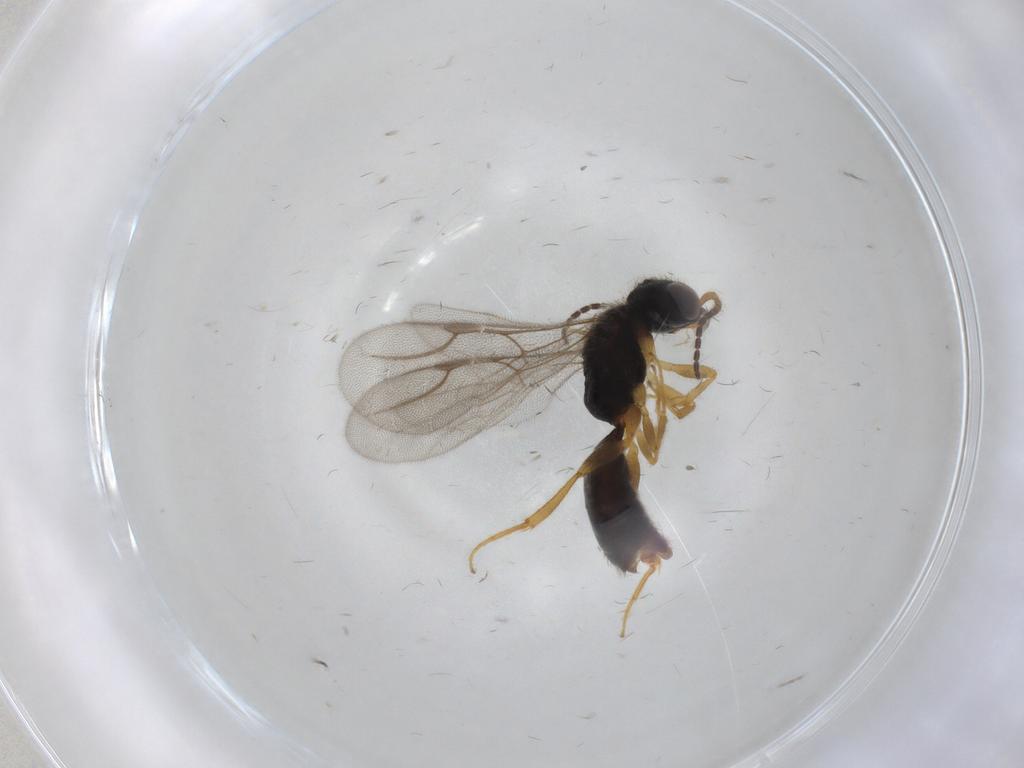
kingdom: Animalia
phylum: Arthropoda
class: Insecta
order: Hymenoptera
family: Bethylidae
